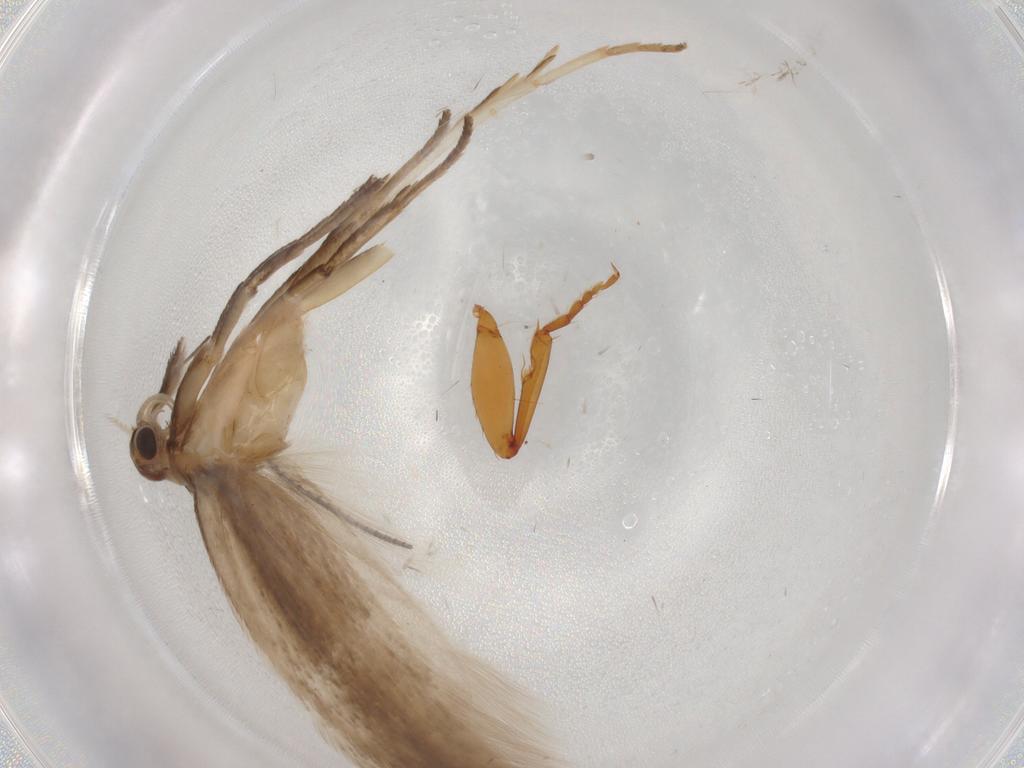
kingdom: Animalia
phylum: Arthropoda
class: Insecta
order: Lepidoptera
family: Gelechiidae
